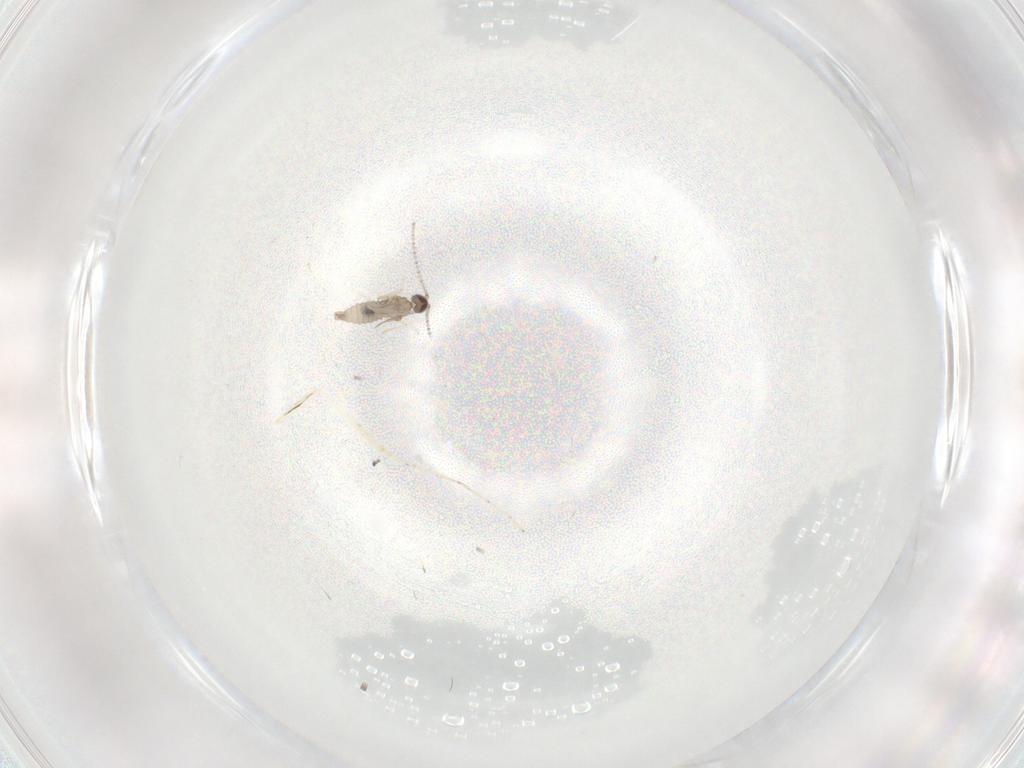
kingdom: Animalia
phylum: Arthropoda
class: Insecta
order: Diptera
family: Cecidomyiidae
